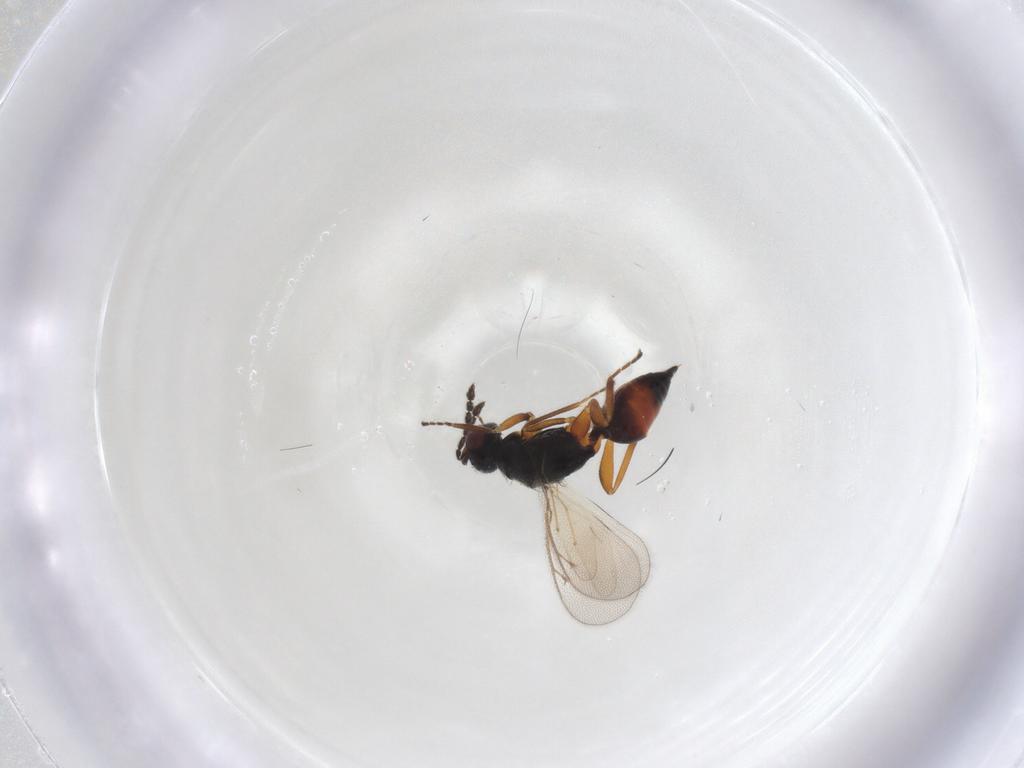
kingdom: Animalia
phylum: Arthropoda
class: Insecta
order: Hymenoptera
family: Eulophidae
